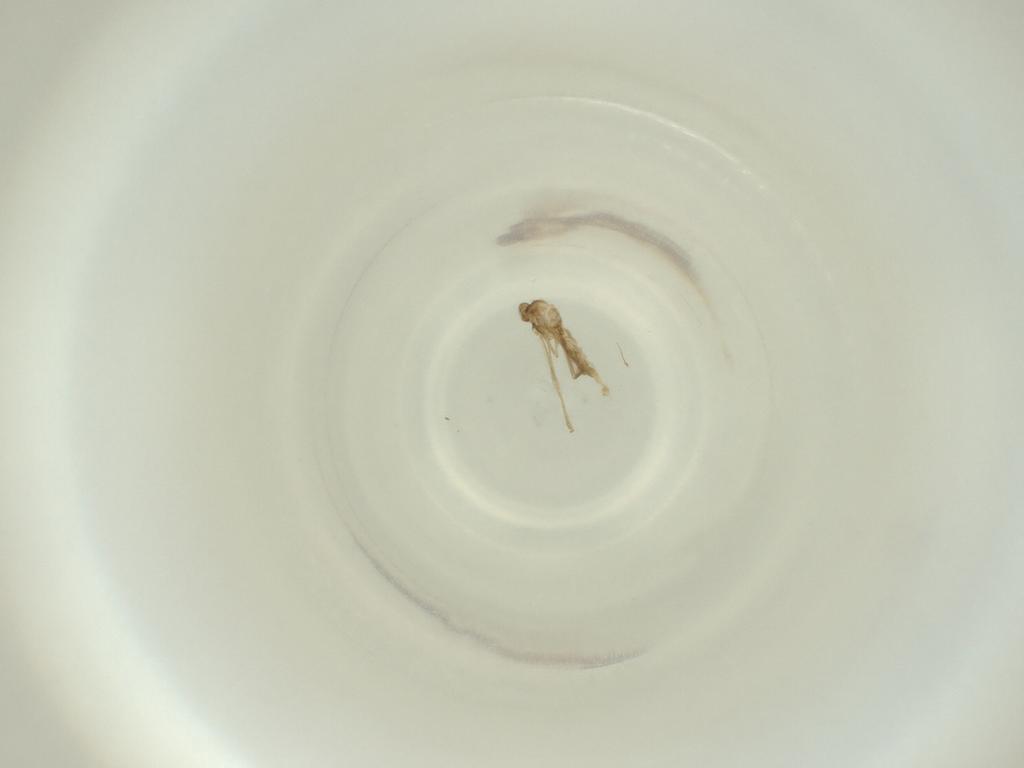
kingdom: Animalia
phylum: Arthropoda
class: Insecta
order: Diptera
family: Cecidomyiidae
